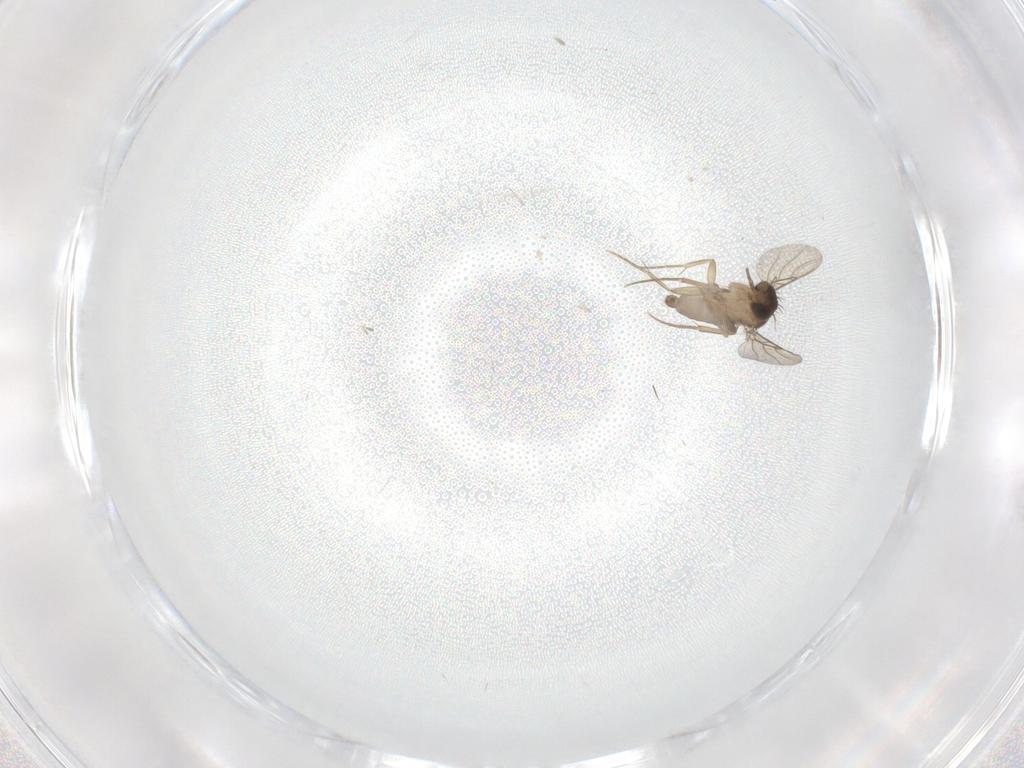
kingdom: Animalia
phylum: Arthropoda
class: Insecta
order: Diptera
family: Phoridae
